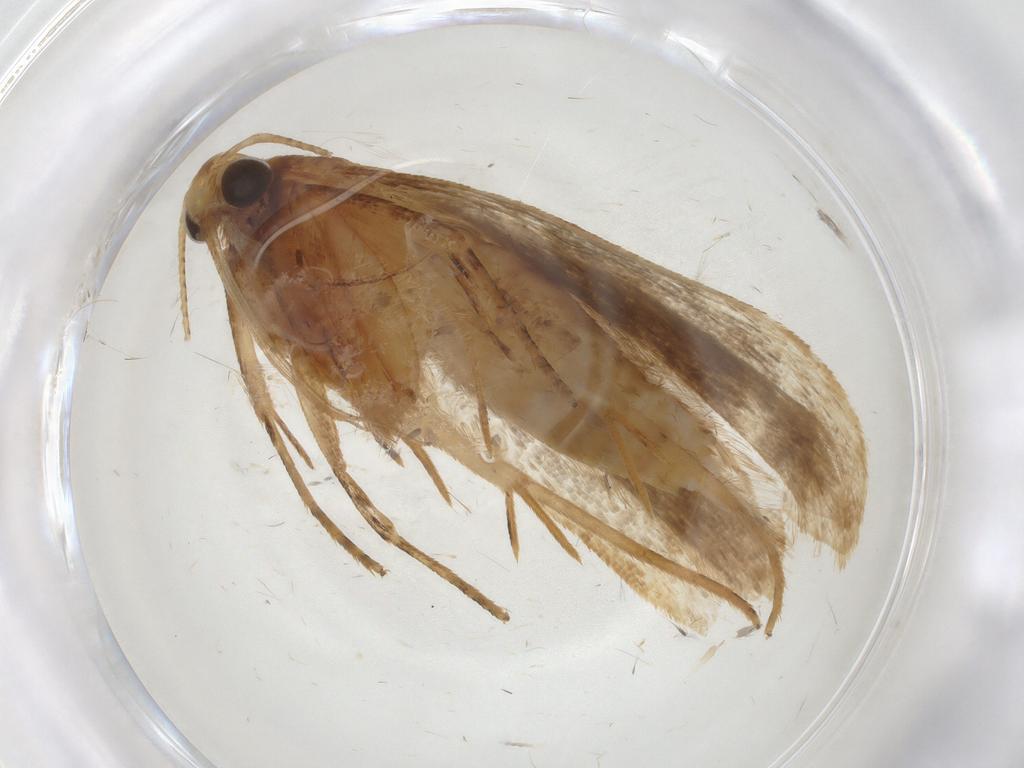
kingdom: Animalia
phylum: Arthropoda
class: Insecta
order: Lepidoptera
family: Gelechiidae
